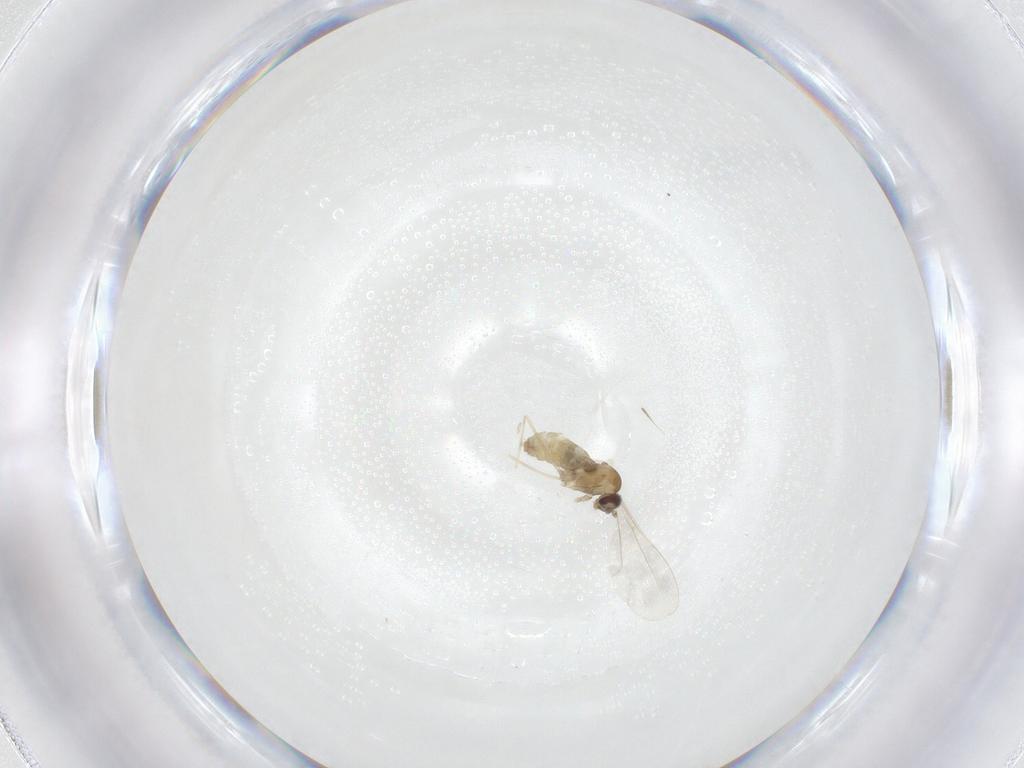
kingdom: Animalia
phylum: Arthropoda
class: Insecta
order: Diptera
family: Cecidomyiidae
